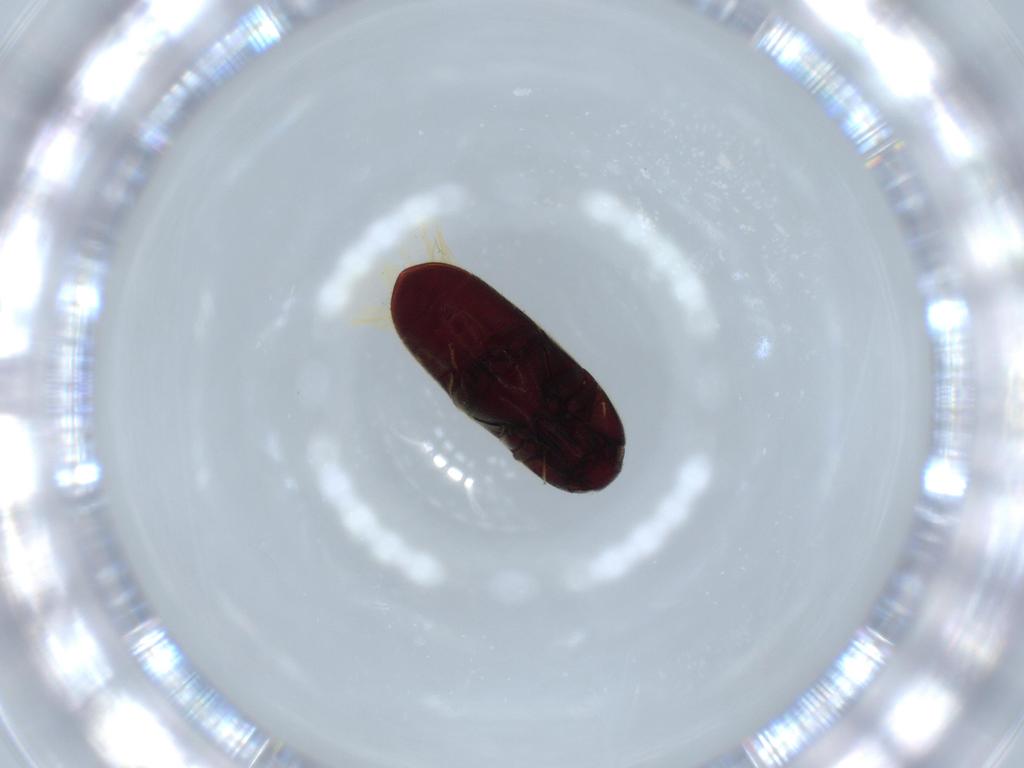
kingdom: Animalia
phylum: Arthropoda
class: Insecta
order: Coleoptera
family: Throscidae
